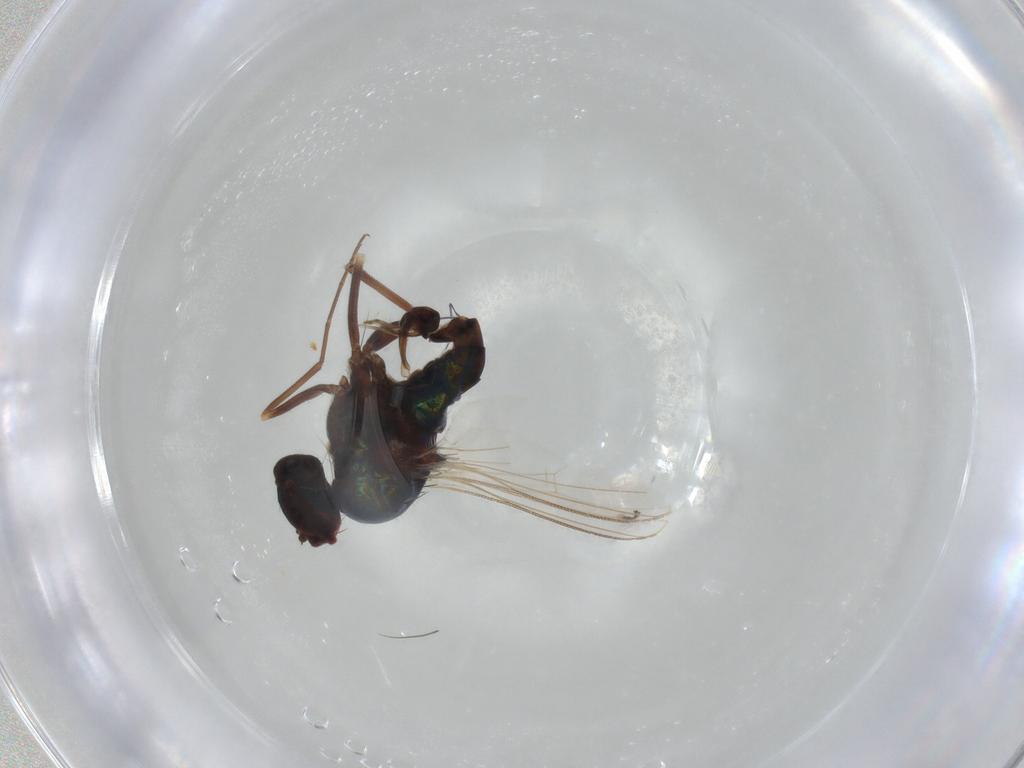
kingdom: Animalia
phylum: Arthropoda
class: Insecta
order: Diptera
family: Dolichopodidae
